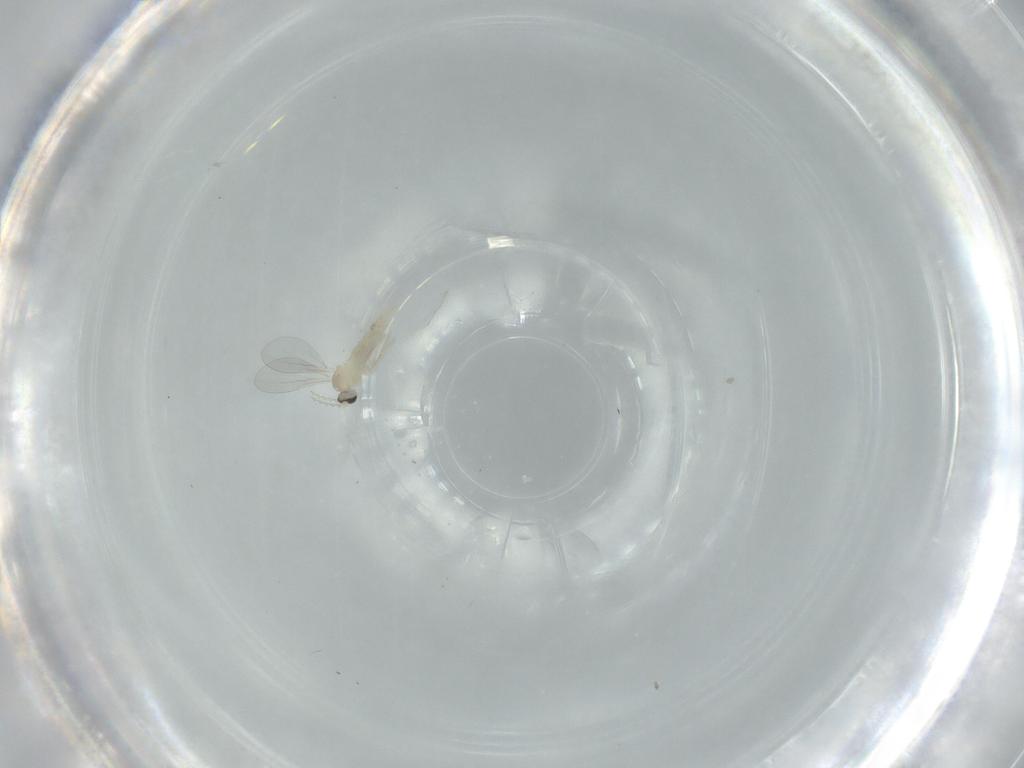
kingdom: Animalia
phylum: Arthropoda
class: Insecta
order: Diptera
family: Cecidomyiidae
